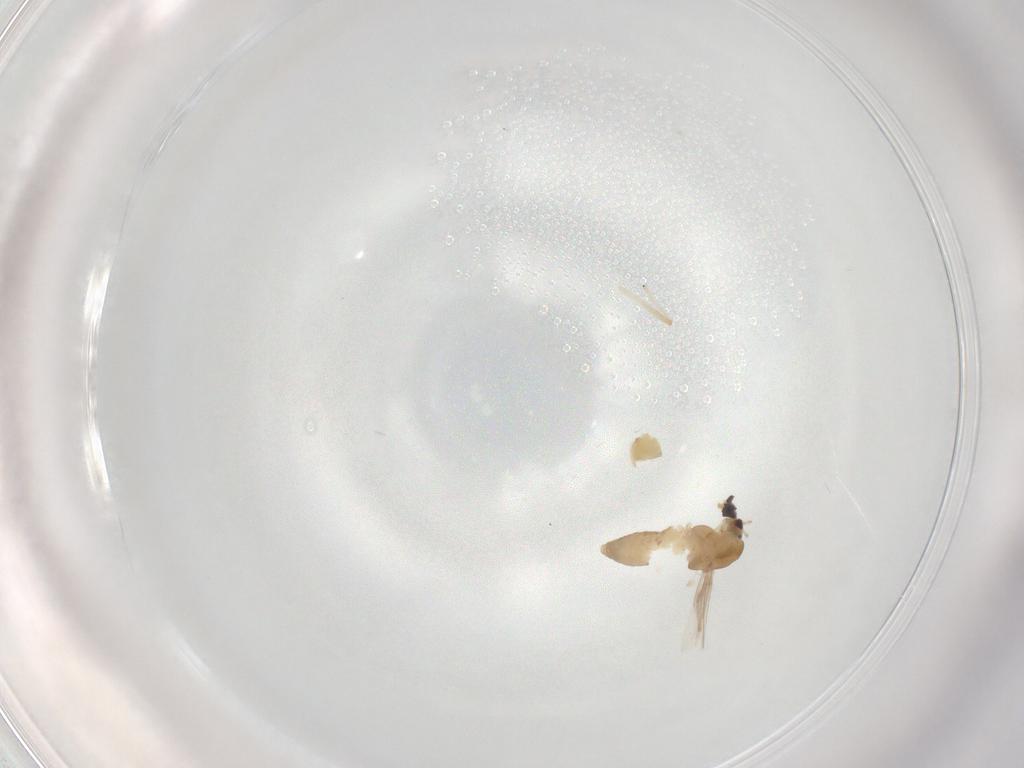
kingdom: Animalia
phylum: Arthropoda
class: Insecta
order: Diptera
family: Chironomidae
